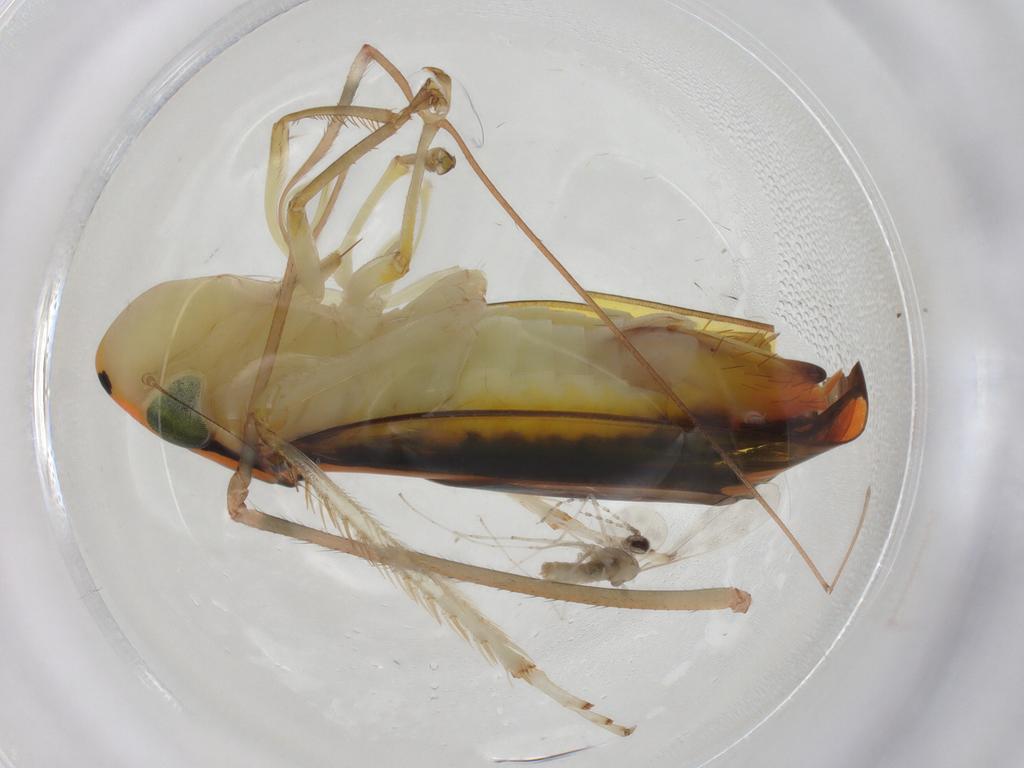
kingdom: Animalia
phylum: Arthropoda
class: Insecta
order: Hemiptera
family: Cicadellidae
